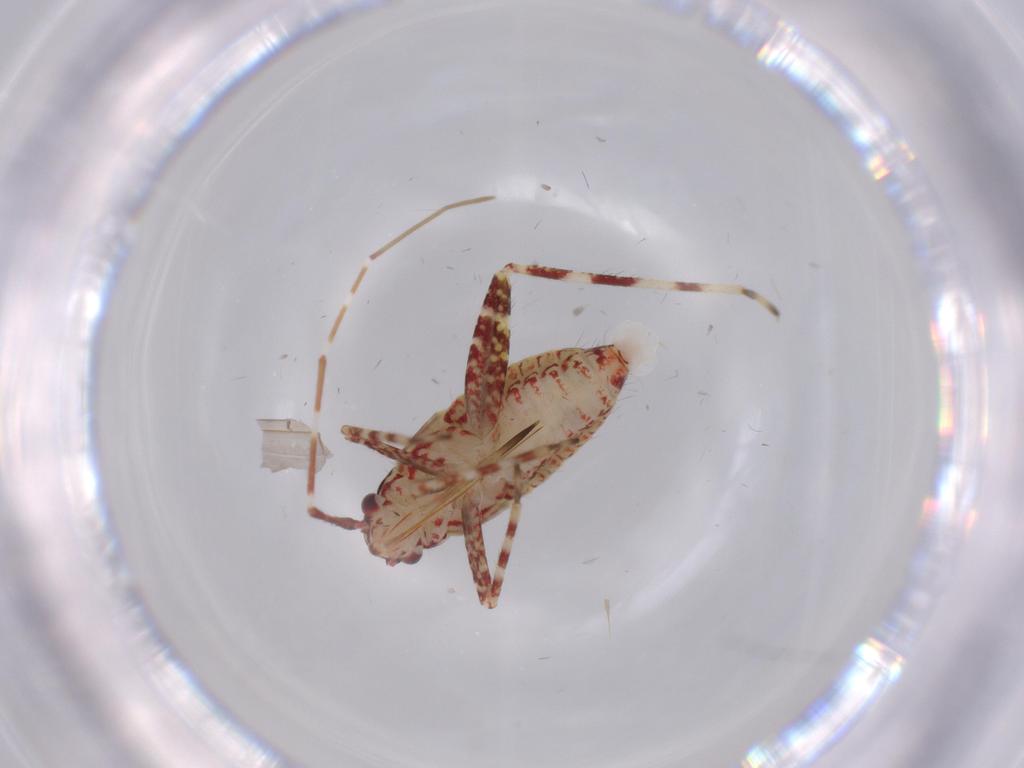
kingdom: Animalia
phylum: Arthropoda
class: Insecta
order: Hemiptera
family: Miridae
